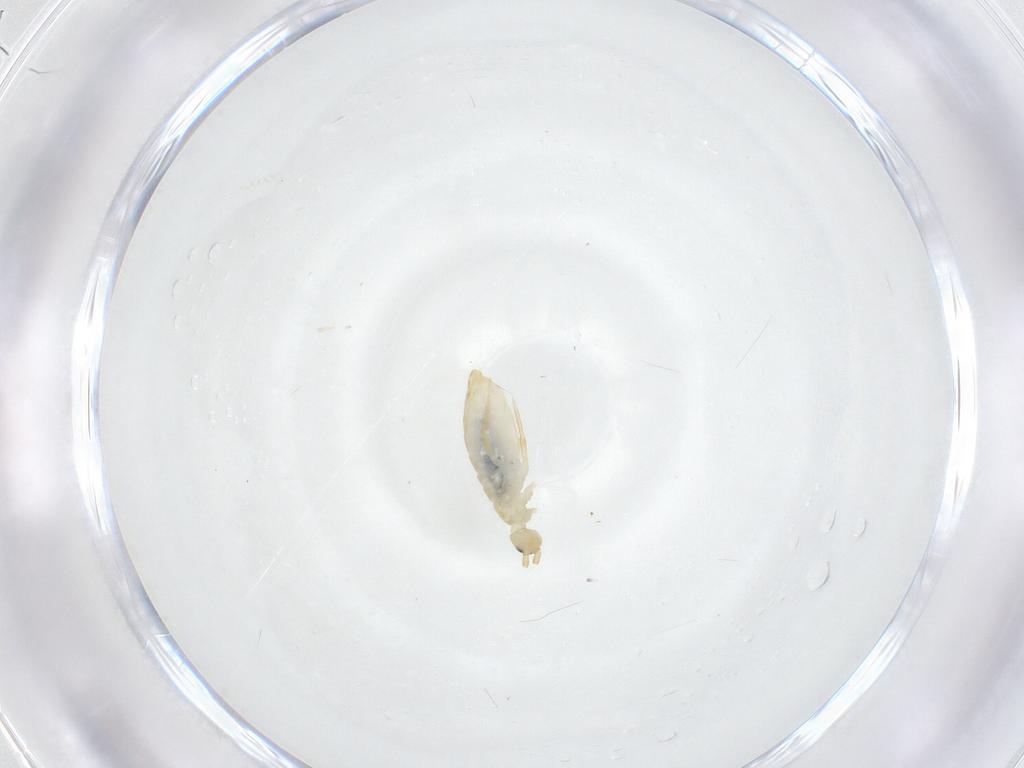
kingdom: Animalia
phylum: Arthropoda
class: Collembola
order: Entomobryomorpha
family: Entomobryidae
